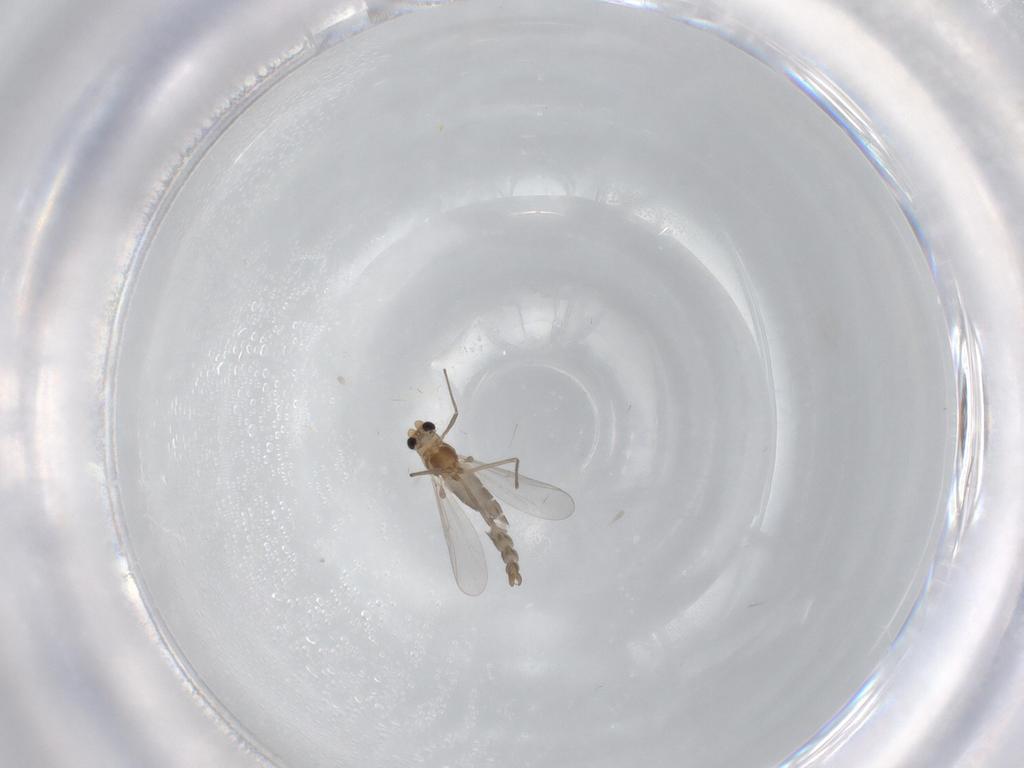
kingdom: Animalia
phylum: Arthropoda
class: Insecta
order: Diptera
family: Chironomidae
